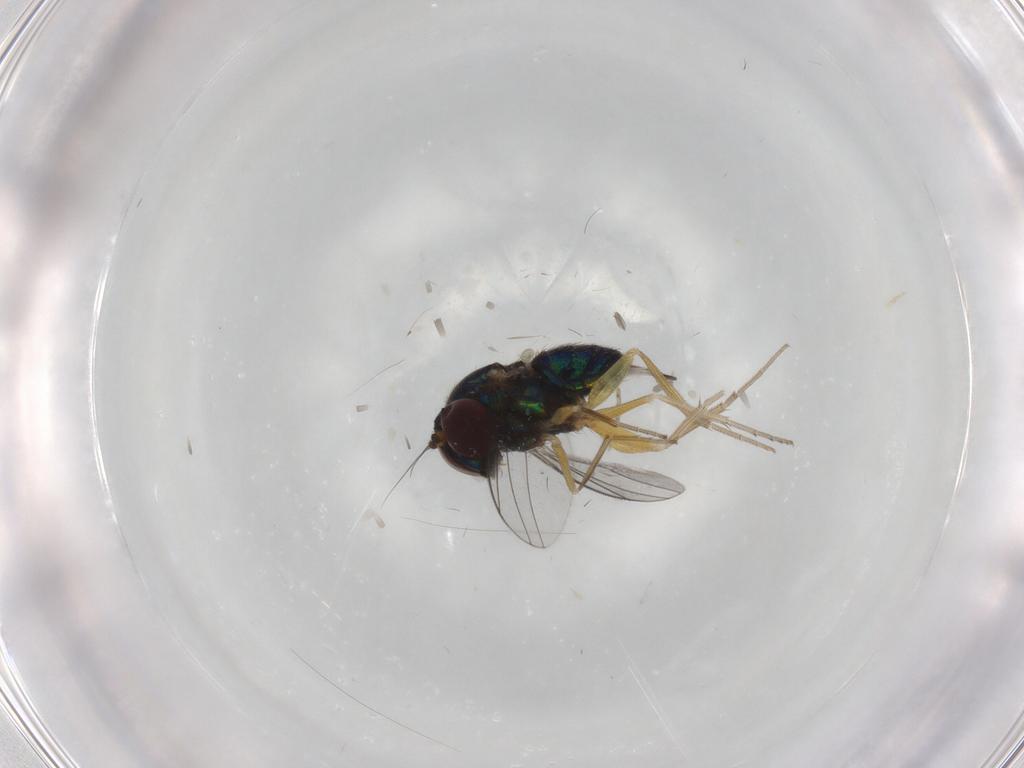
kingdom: Animalia
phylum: Arthropoda
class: Insecta
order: Diptera
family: Dolichopodidae
